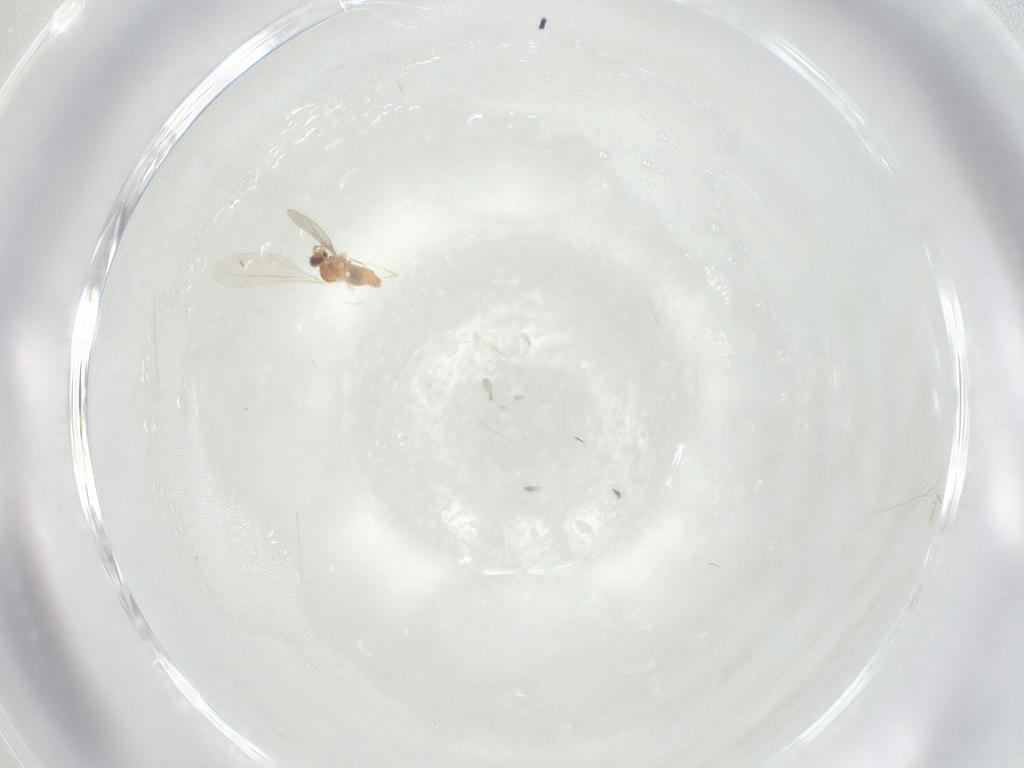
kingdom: Animalia
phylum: Arthropoda
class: Insecta
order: Diptera
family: Cecidomyiidae
